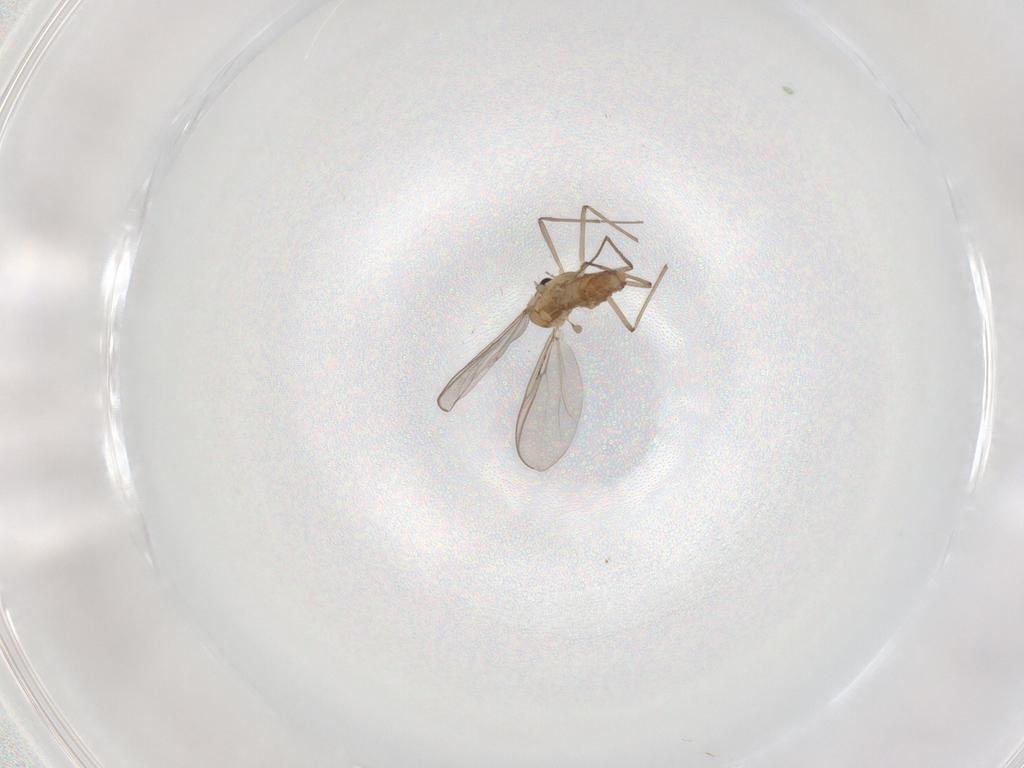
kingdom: Animalia
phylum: Arthropoda
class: Insecta
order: Diptera
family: Chironomidae
